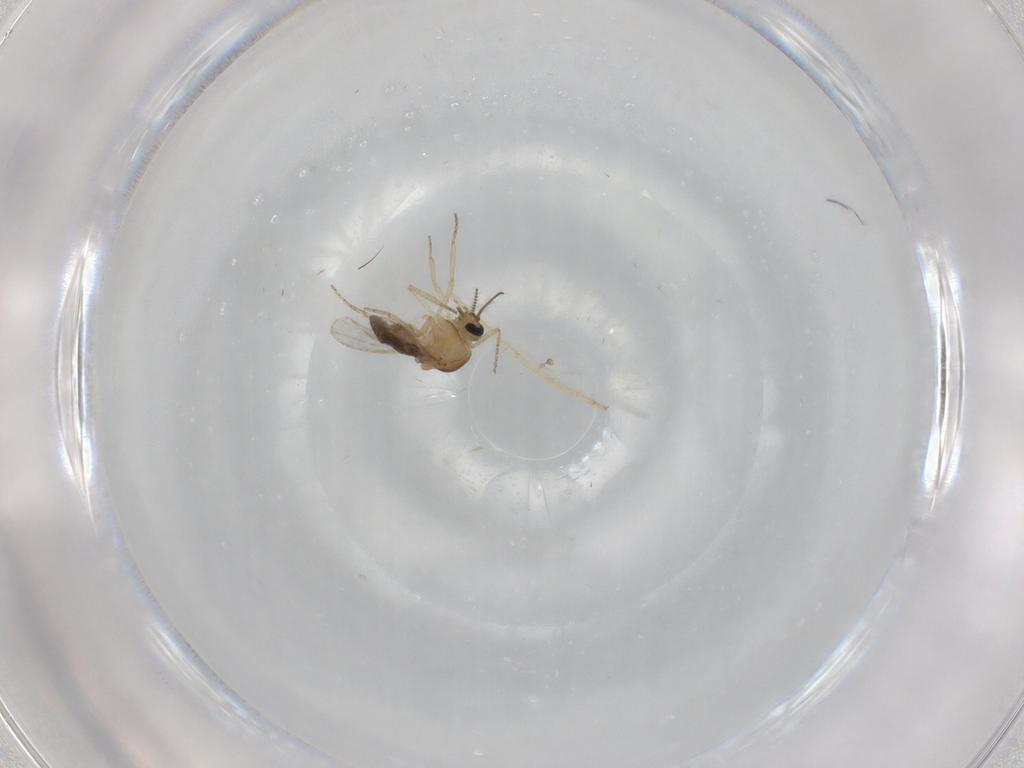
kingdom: Animalia
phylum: Arthropoda
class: Insecta
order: Diptera
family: Ceratopogonidae
